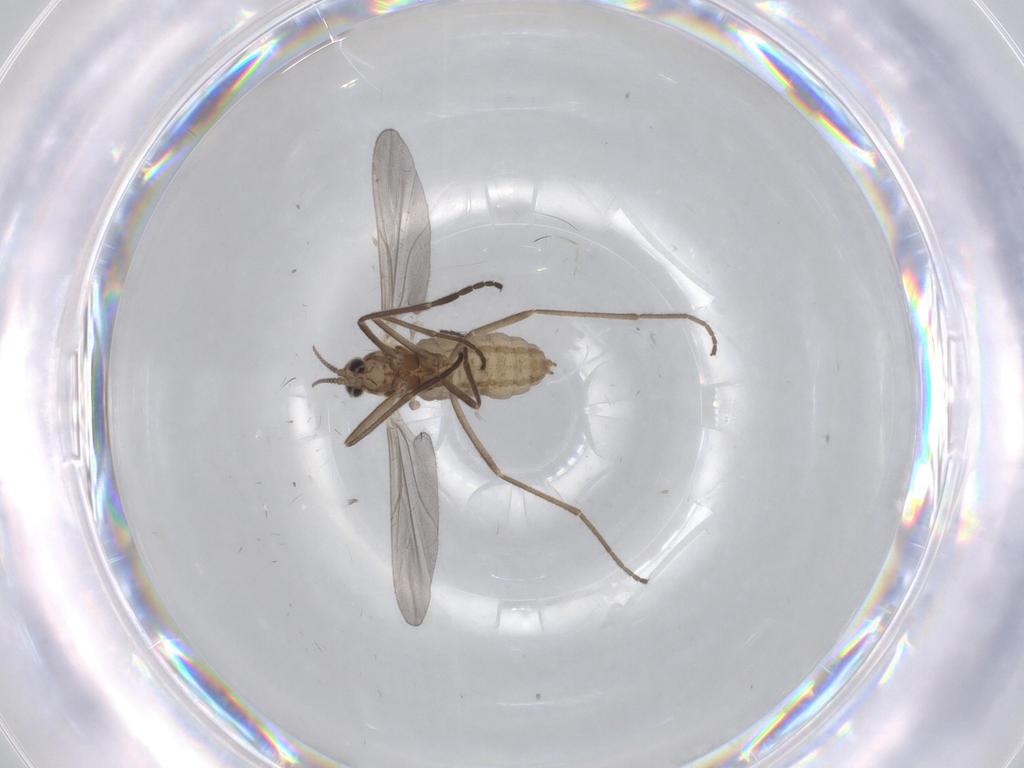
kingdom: Animalia
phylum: Arthropoda
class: Insecta
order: Diptera
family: Cecidomyiidae
